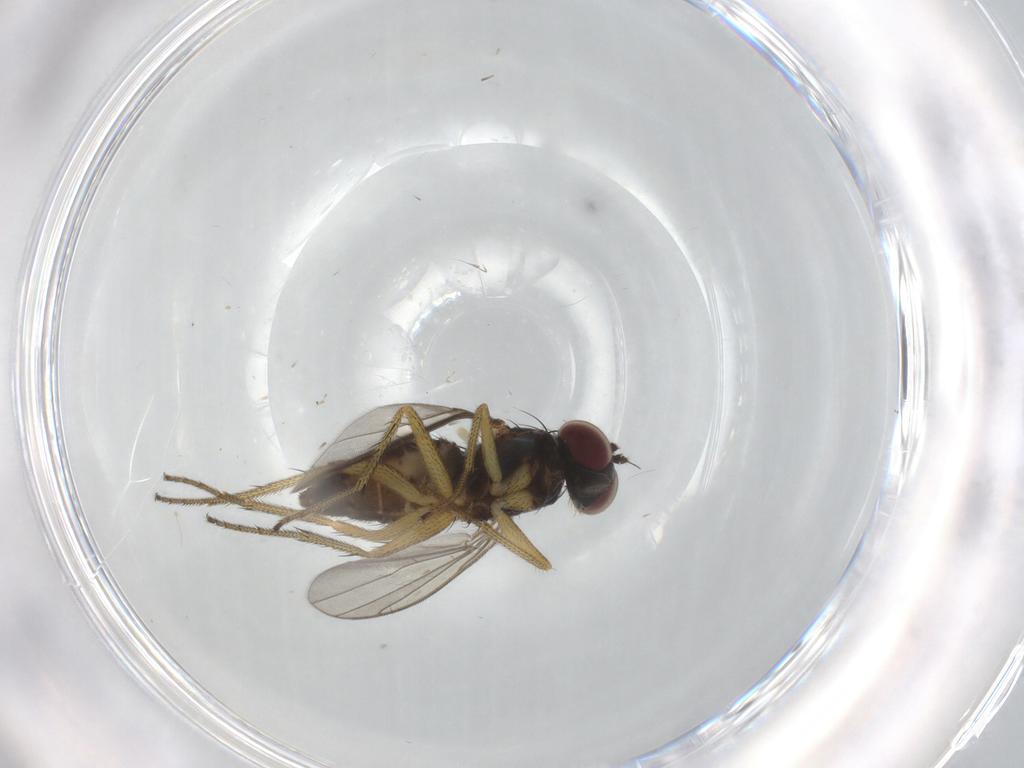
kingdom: Animalia
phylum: Arthropoda
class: Insecta
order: Diptera
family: Dolichopodidae
